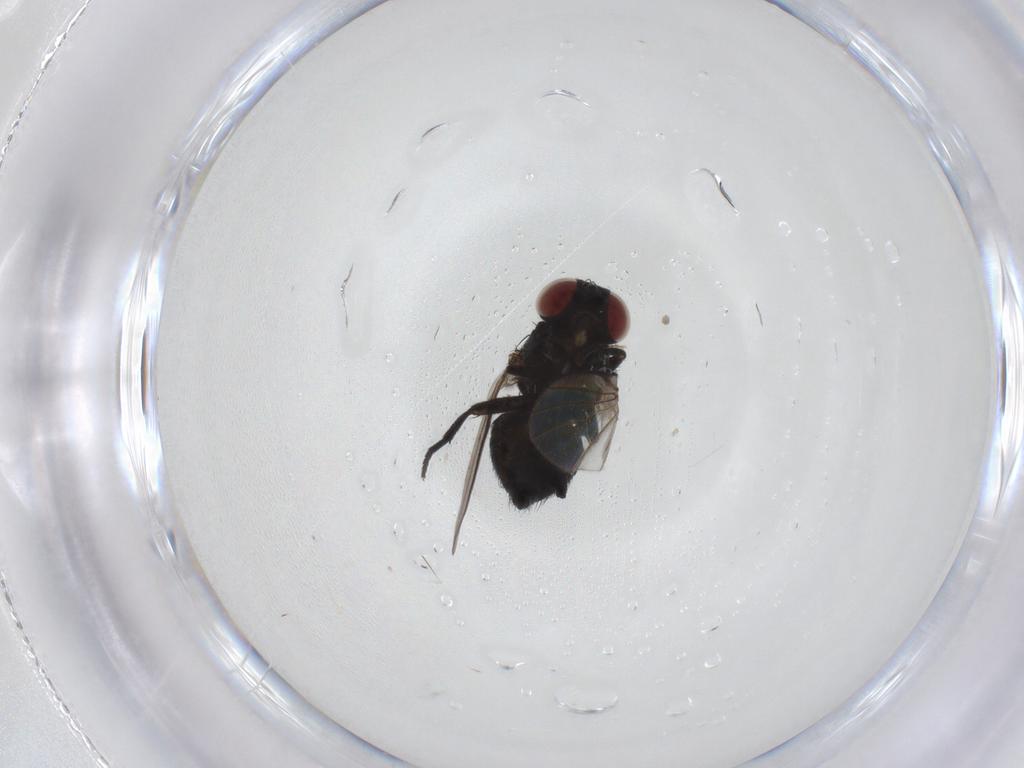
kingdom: Animalia
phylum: Arthropoda
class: Insecta
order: Diptera
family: Agromyzidae
